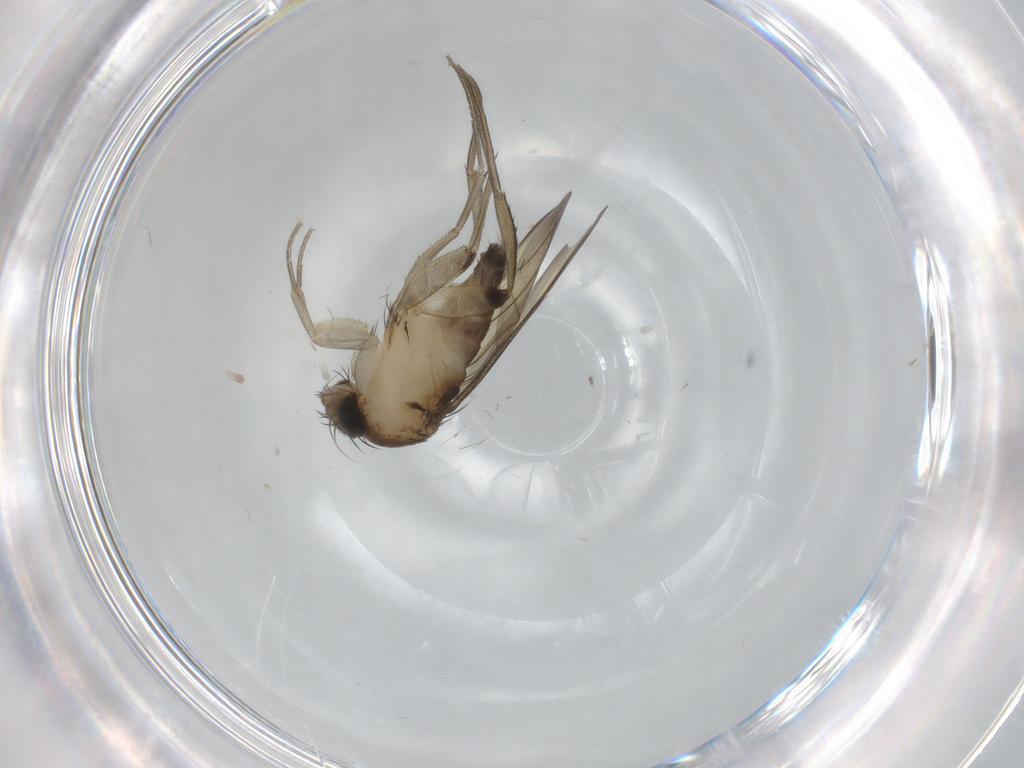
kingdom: Animalia
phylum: Arthropoda
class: Insecta
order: Diptera
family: Phoridae
